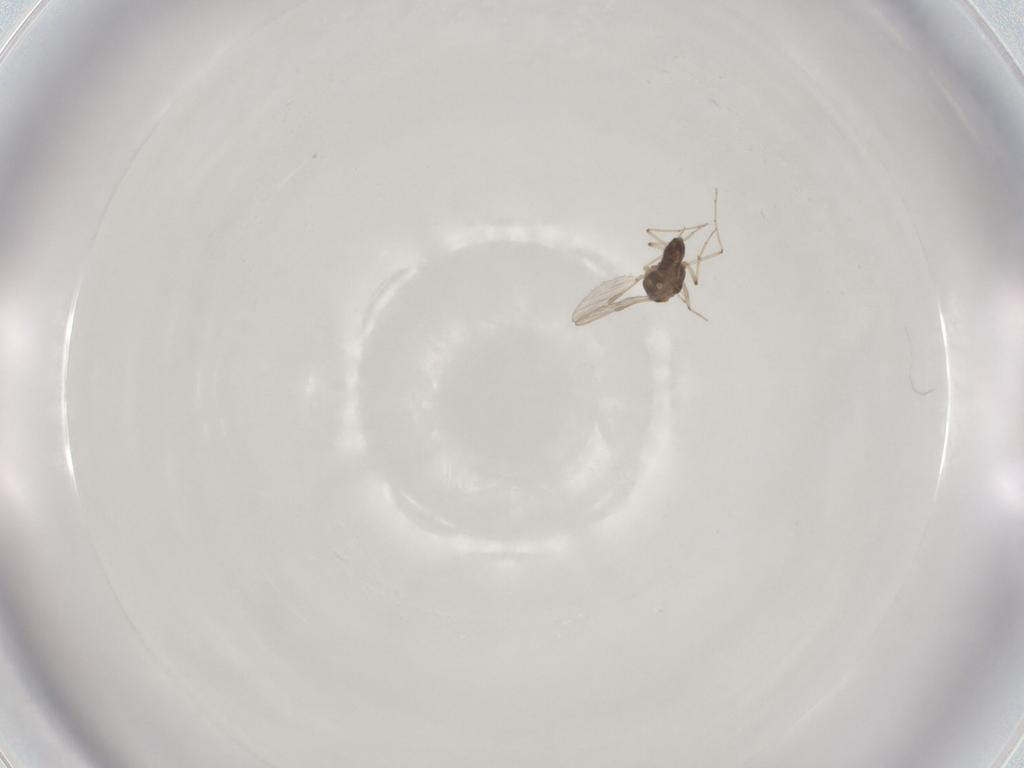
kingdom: Animalia
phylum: Arthropoda
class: Insecta
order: Diptera
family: Chironomidae
